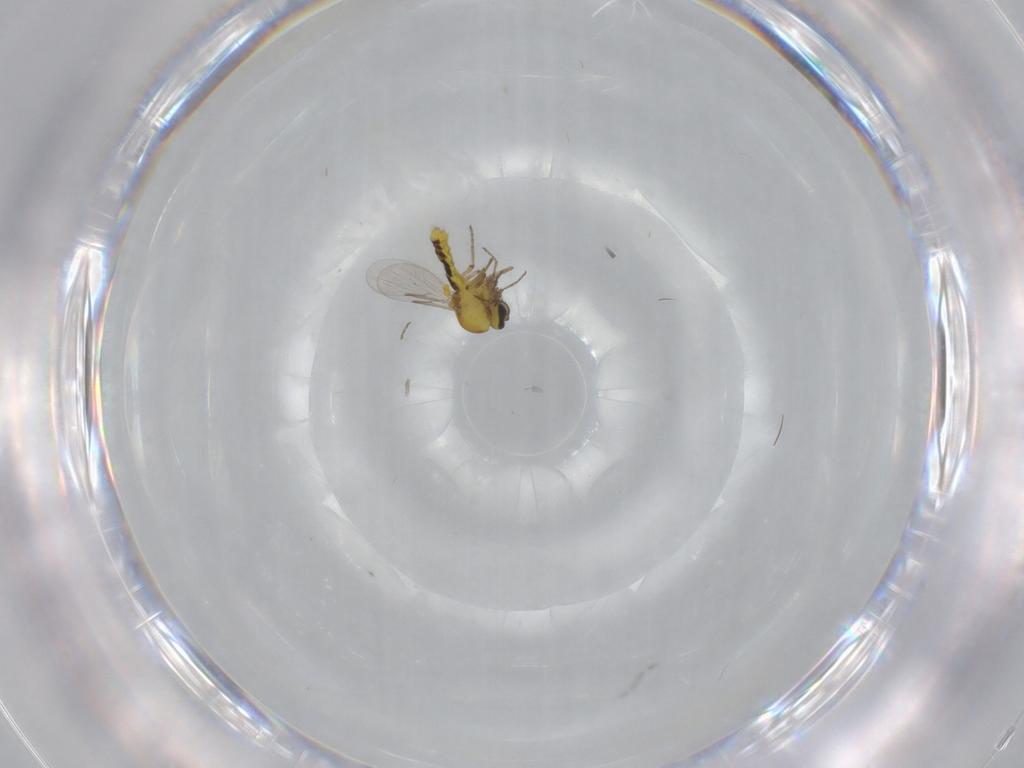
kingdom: Animalia
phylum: Arthropoda
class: Insecta
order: Diptera
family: Ceratopogonidae
